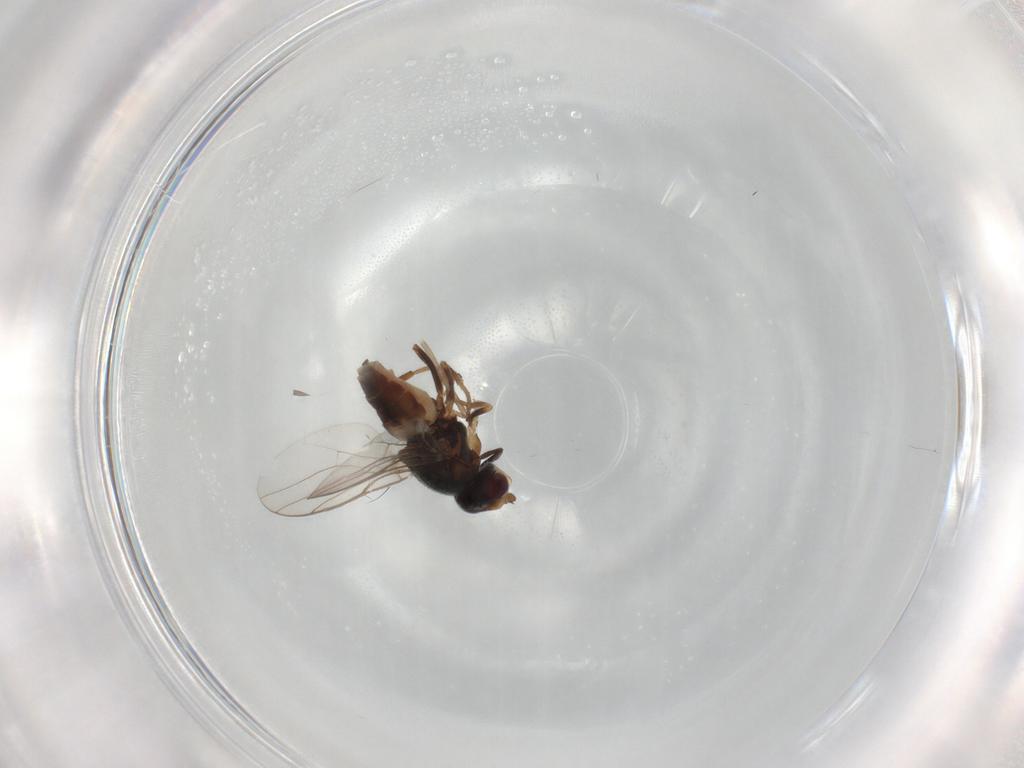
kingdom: Animalia
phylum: Arthropoda
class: Insecta
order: Diptera
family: Chloropidae
